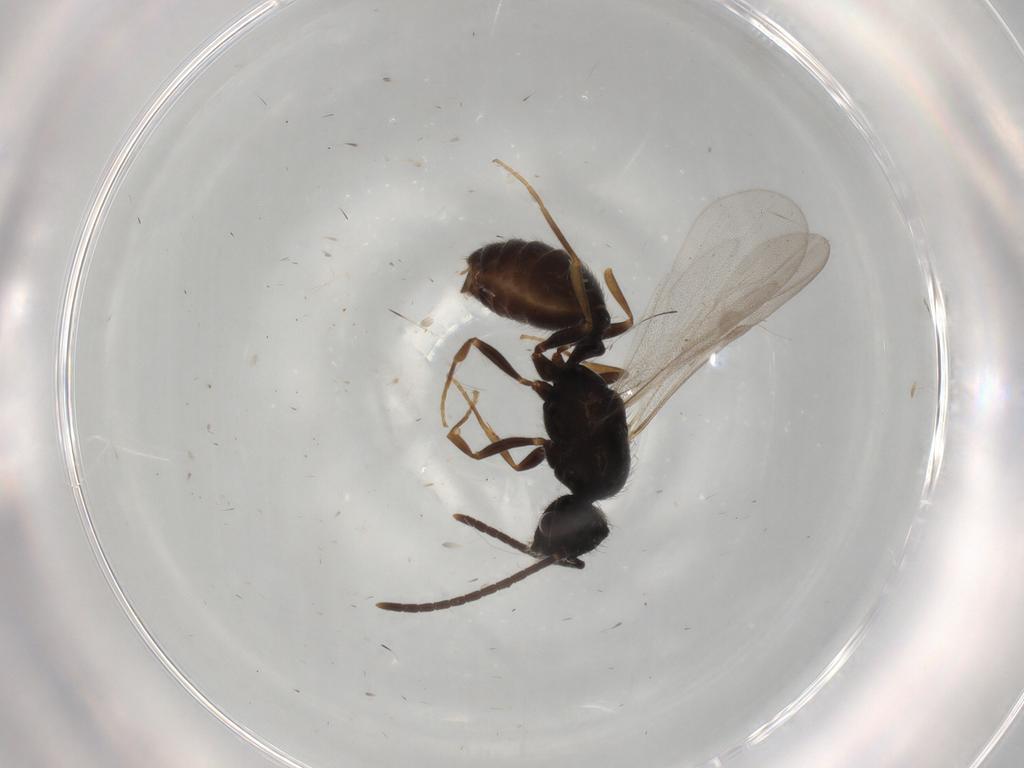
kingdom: Animalia
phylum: Arthropoda
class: Insecta
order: Hymenoptera
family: Formicidae
